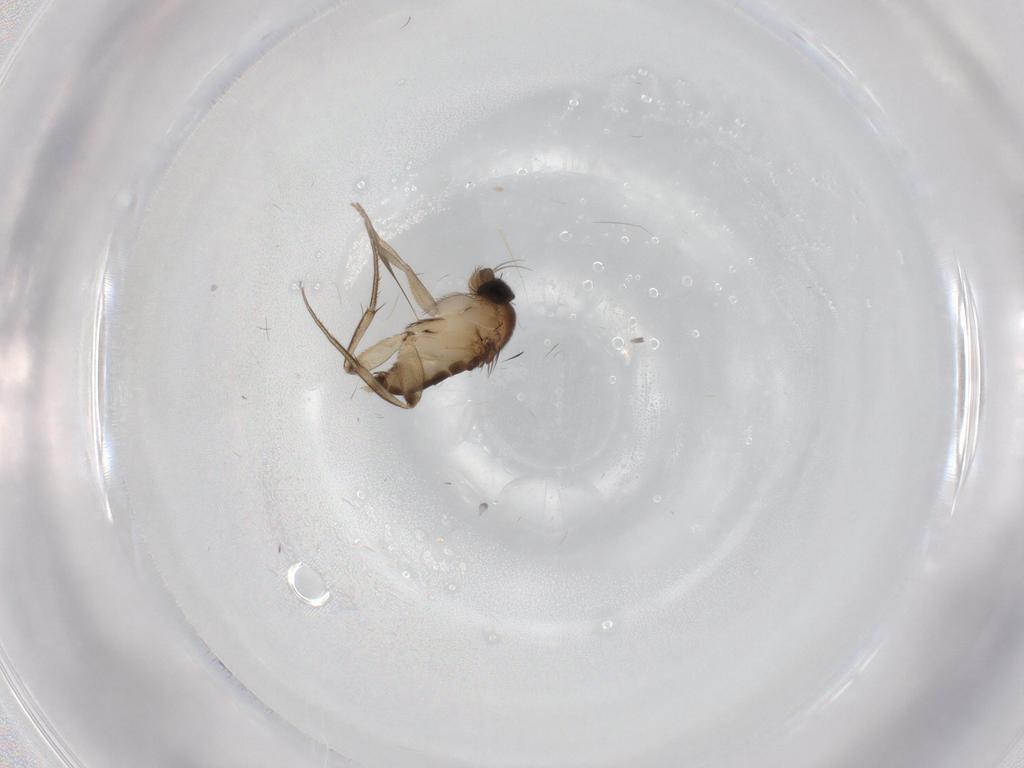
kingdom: Animalia
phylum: Arthropoda
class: Insecta
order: Diptera
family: Phoridae
